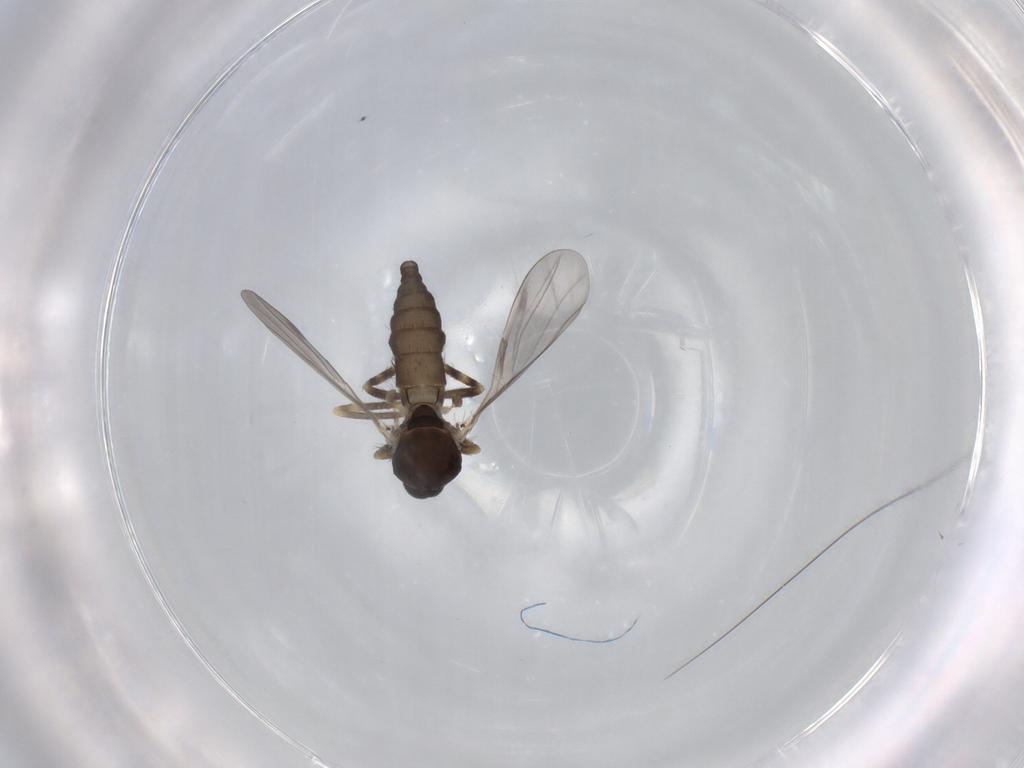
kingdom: Animalia
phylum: Arthropoda
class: Insecta
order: Diptera
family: Ceratopogonidae
